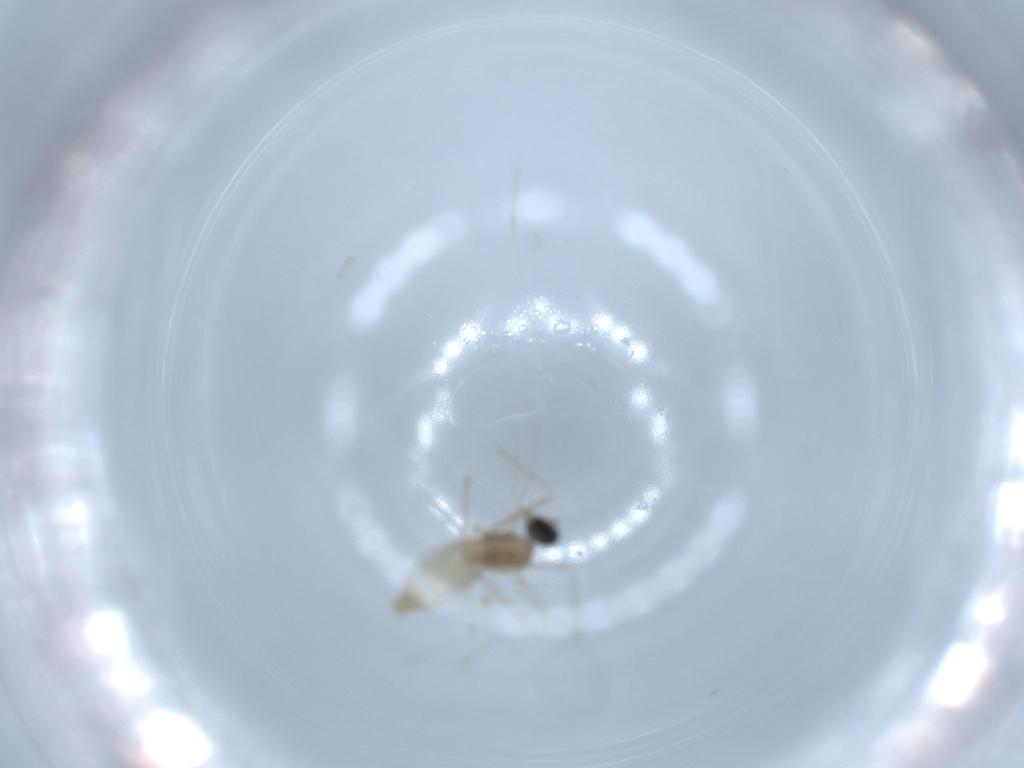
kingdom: Animalia
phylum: Arthropoda
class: Insecta
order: Diptera
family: Cecidomyiidae
